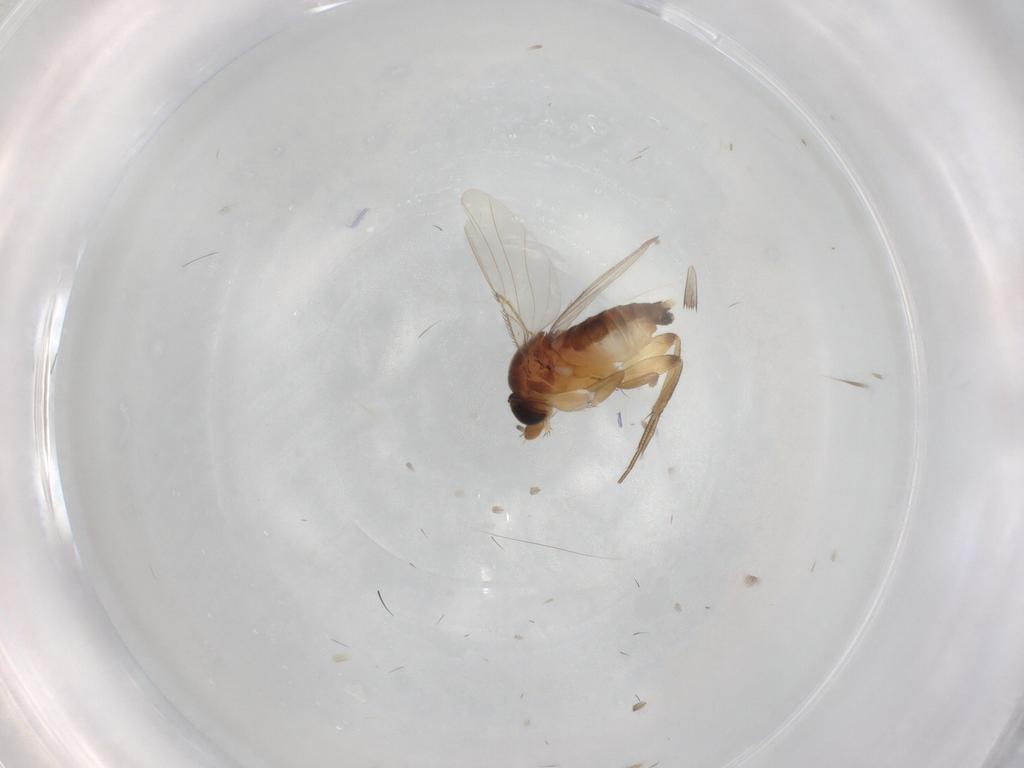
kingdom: Animalia
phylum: Arthropoda
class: Insecta
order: Diptera
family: Phoridae
